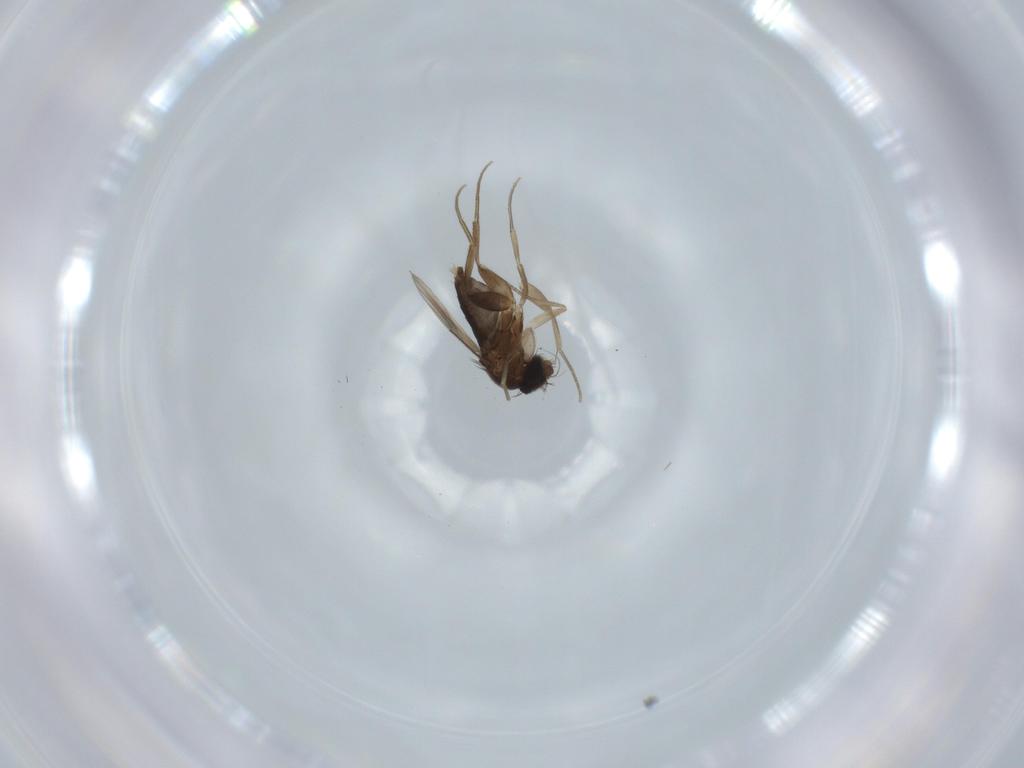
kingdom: Animalia
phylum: Arthropoda
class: Insecta
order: Diptera
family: Phoridae
